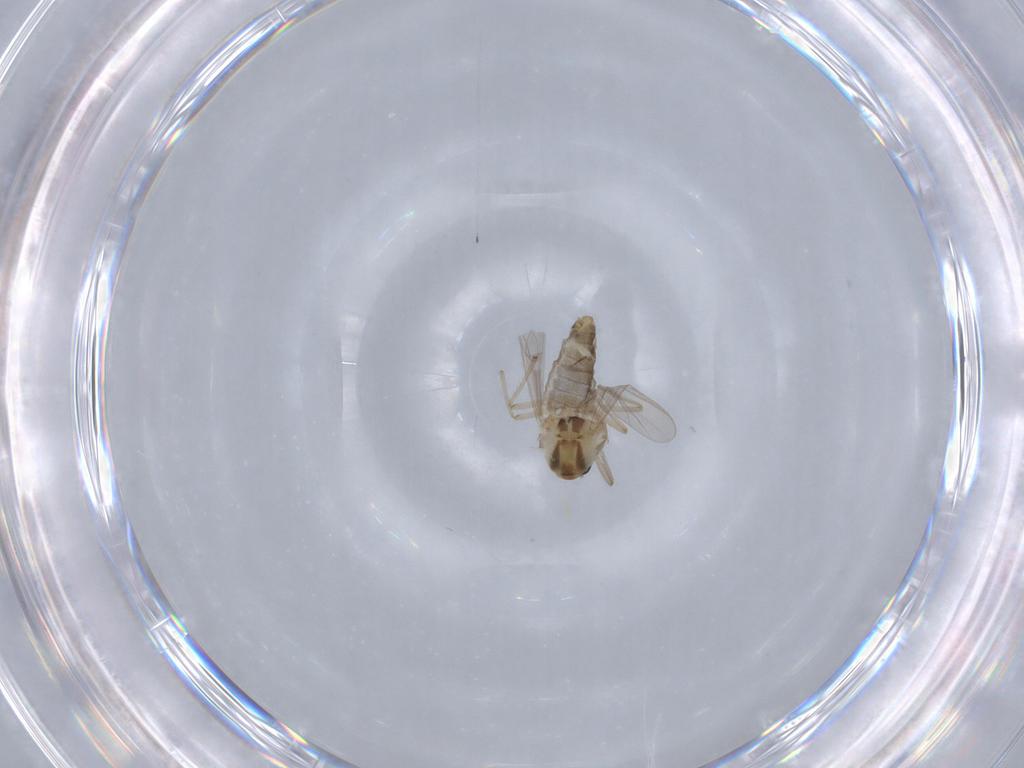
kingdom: Animalia
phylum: Arthropoda
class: Insecta
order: Diptera
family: Chironomidae
